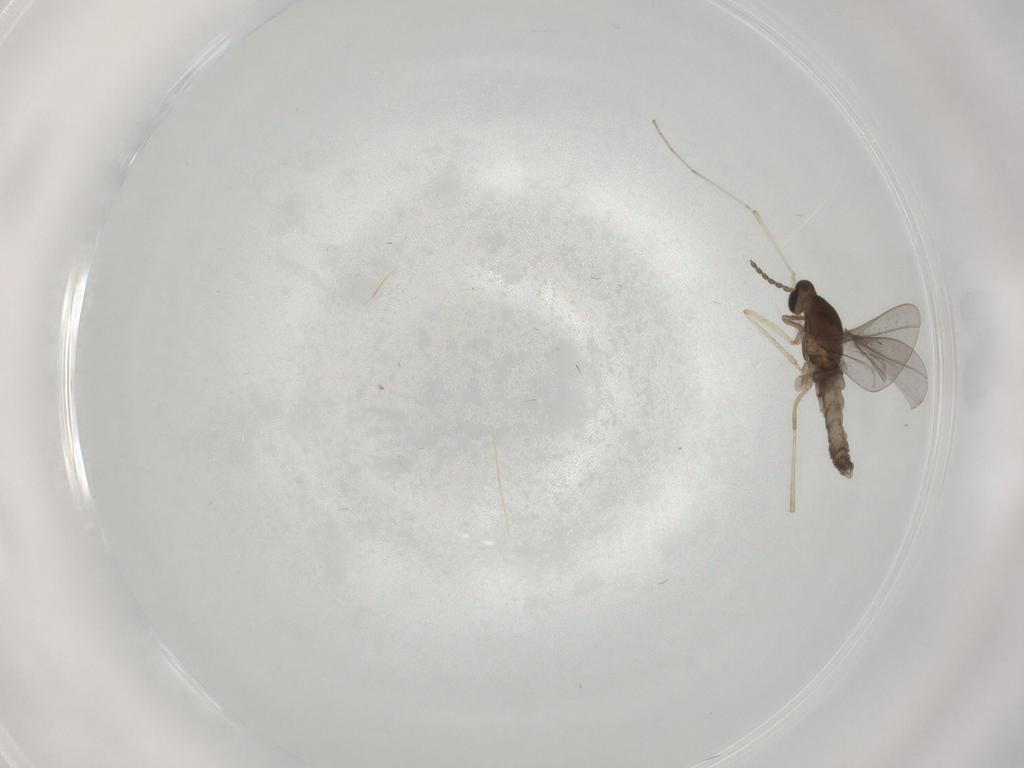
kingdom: Animalia
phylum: Arthropoda
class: Insecta
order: Diptera
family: Cecidomyiidae
